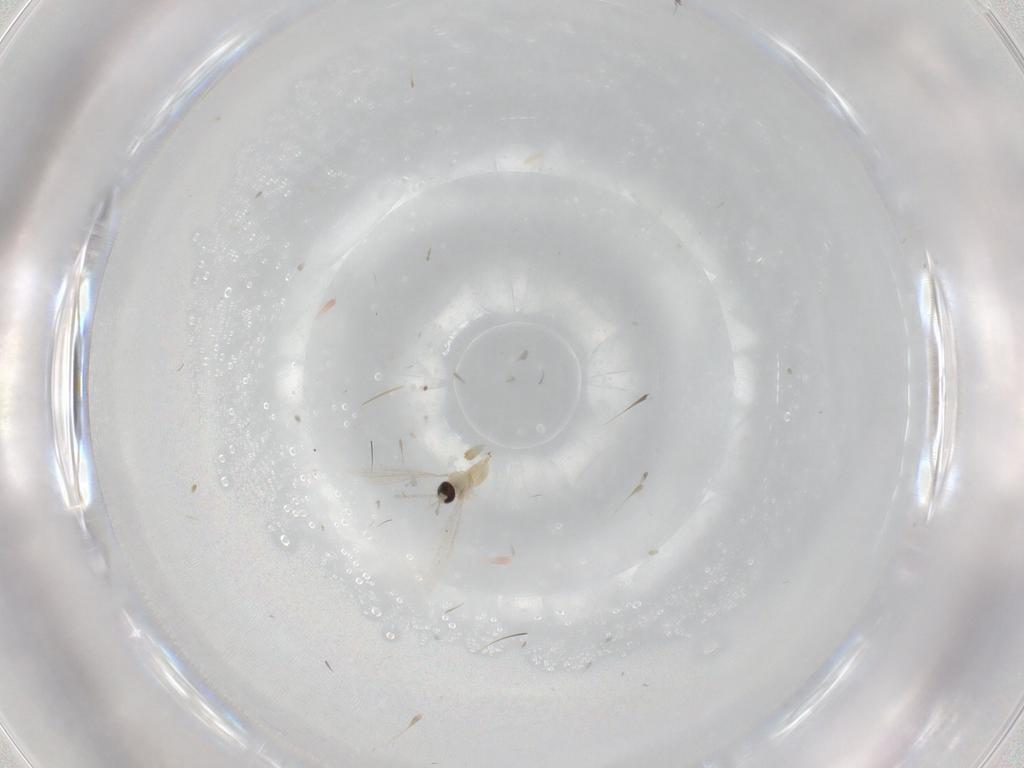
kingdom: Animalia
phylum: Arthropoda
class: Insecta
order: Diptera
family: Cecidomyiidae
